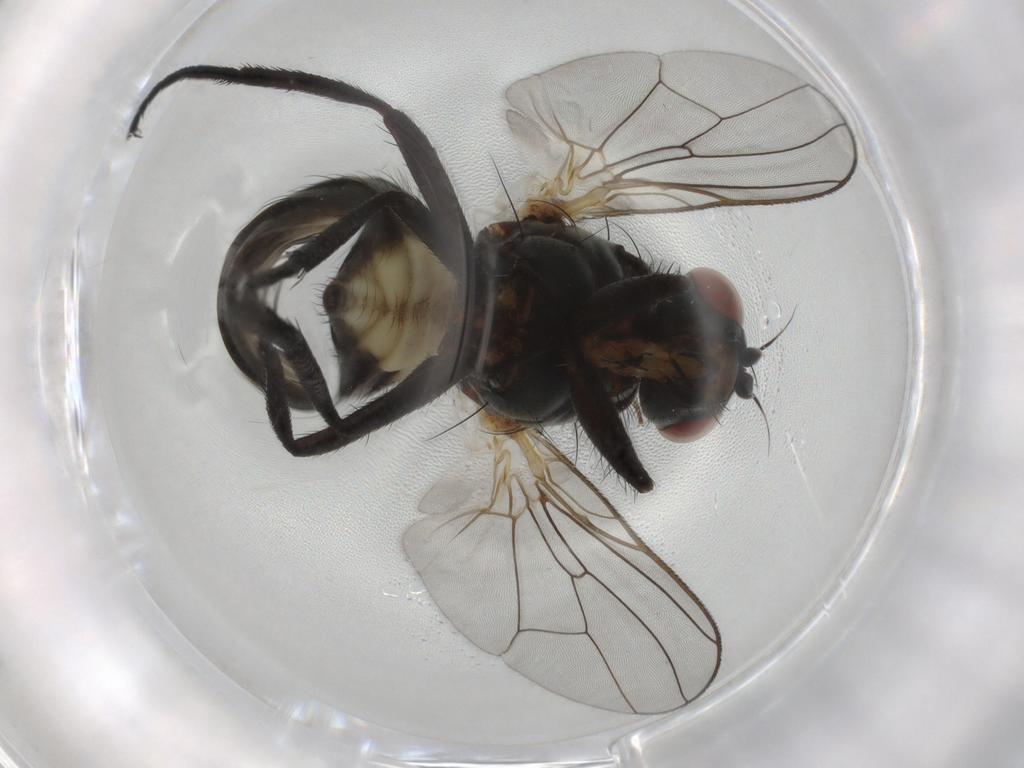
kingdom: Animalia
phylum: Arthropoda
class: Insecta
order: Diptera
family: Anthomyiidae
